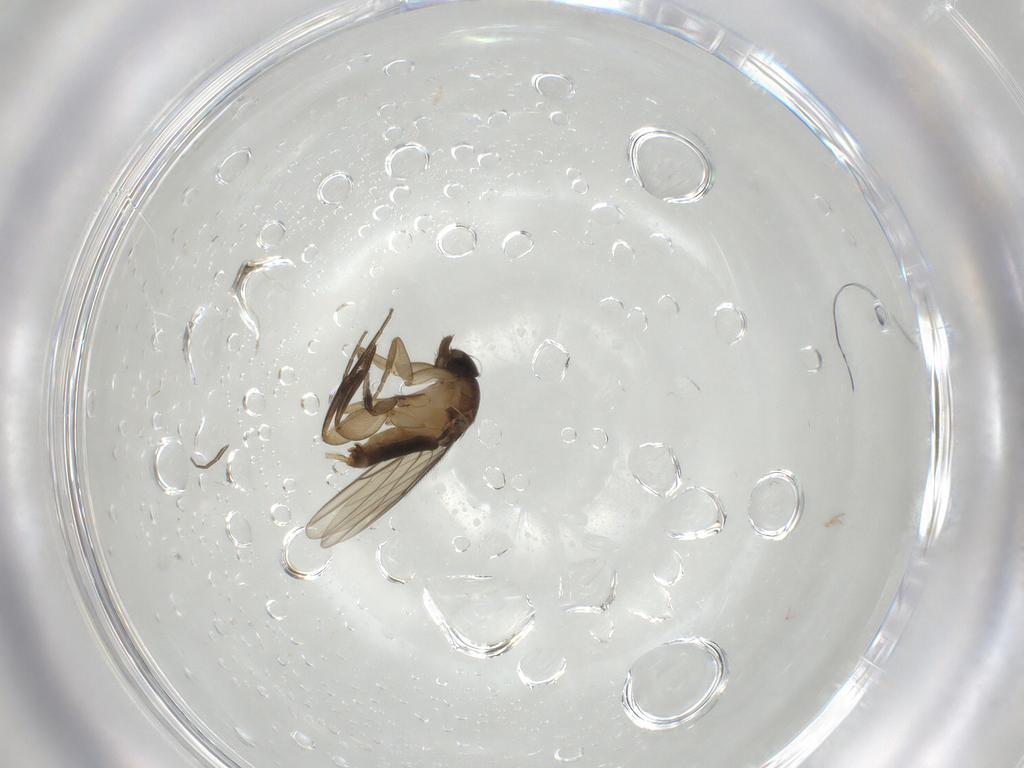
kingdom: Animalia
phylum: Arthropoda
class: Insecta
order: Diptera
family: Phoridae
